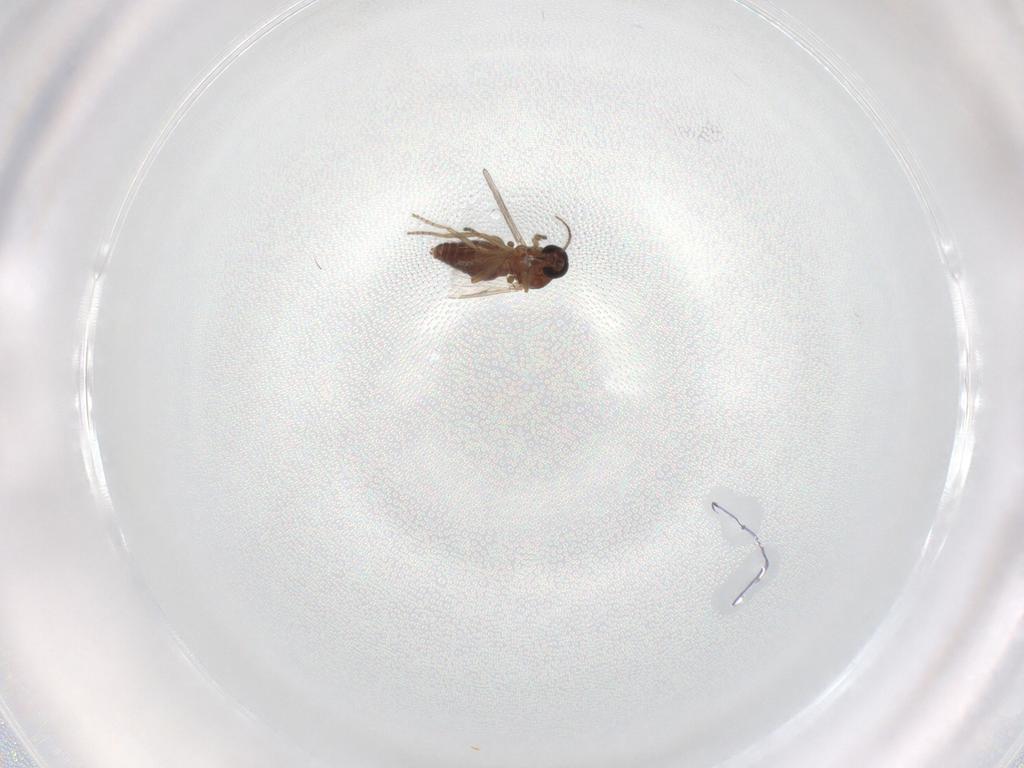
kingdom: Animalia
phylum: Arthropoda
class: Insecta
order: Diptera
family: Ceratopogonidae
